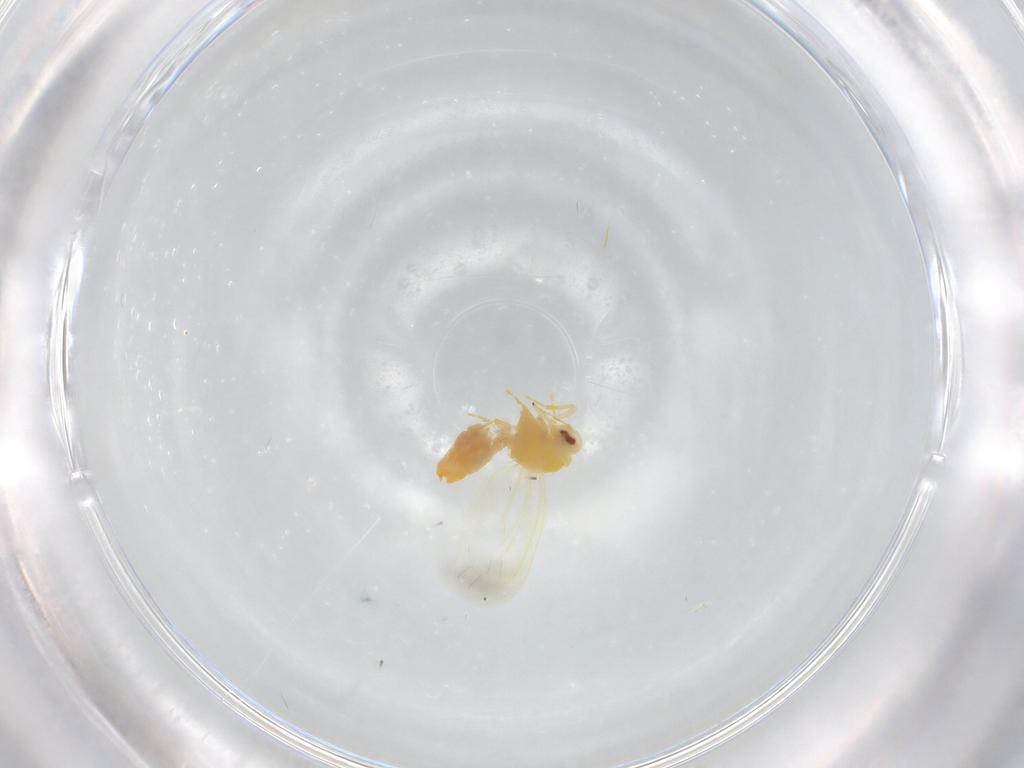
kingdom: Animalia
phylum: Arthropoda
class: Insecta
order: Hemiptera
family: Aleyrodidae
